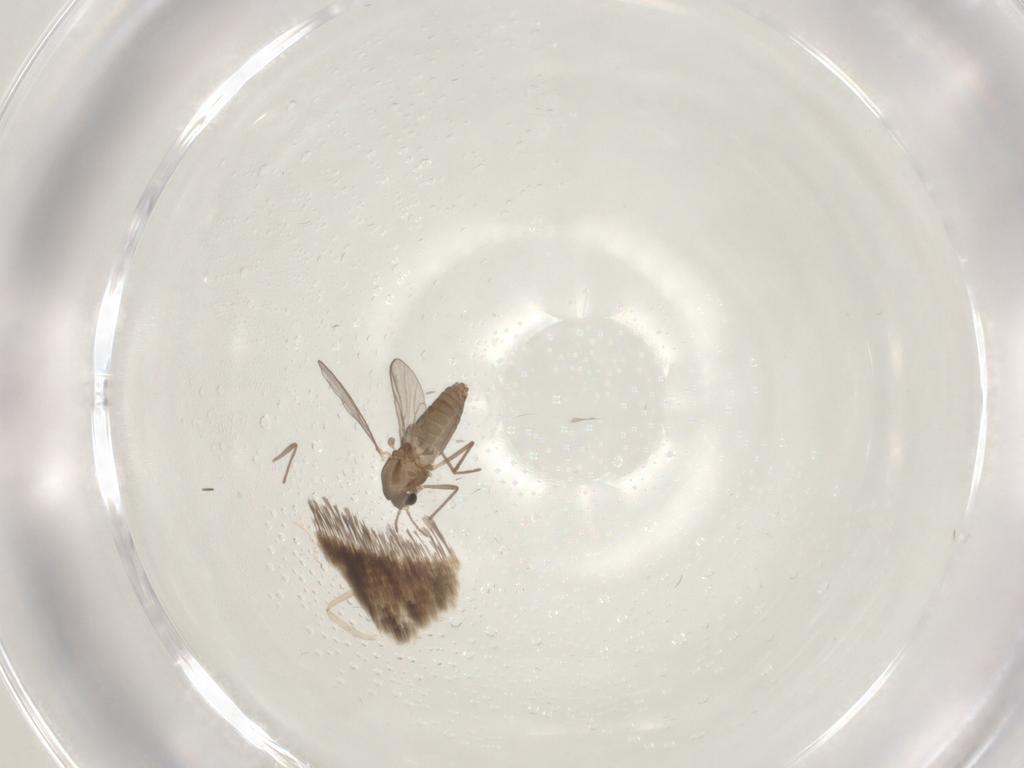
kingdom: Animalia
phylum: Arthropoda
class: Insecta
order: Diptera
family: Chironomidae
